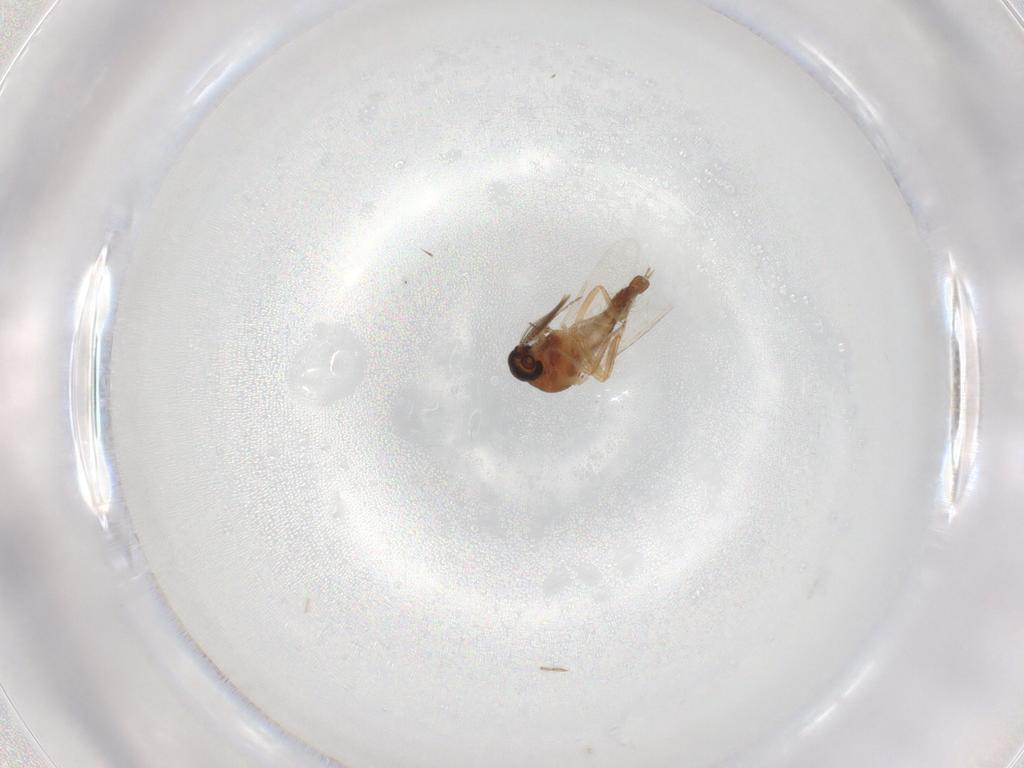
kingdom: Animalia
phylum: Arthropoda
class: Insecta
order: Diptera
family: Ceratopogonidae
